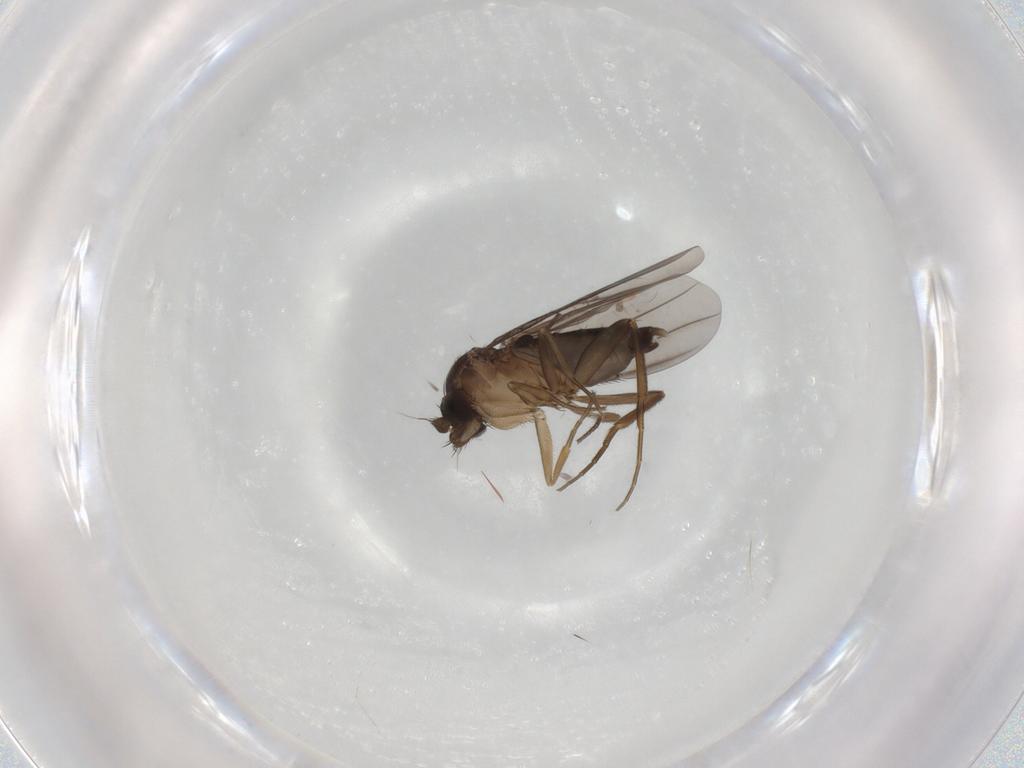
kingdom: Animalia
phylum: Arthropoda
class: Insecta
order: Diptera
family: Phoridae
